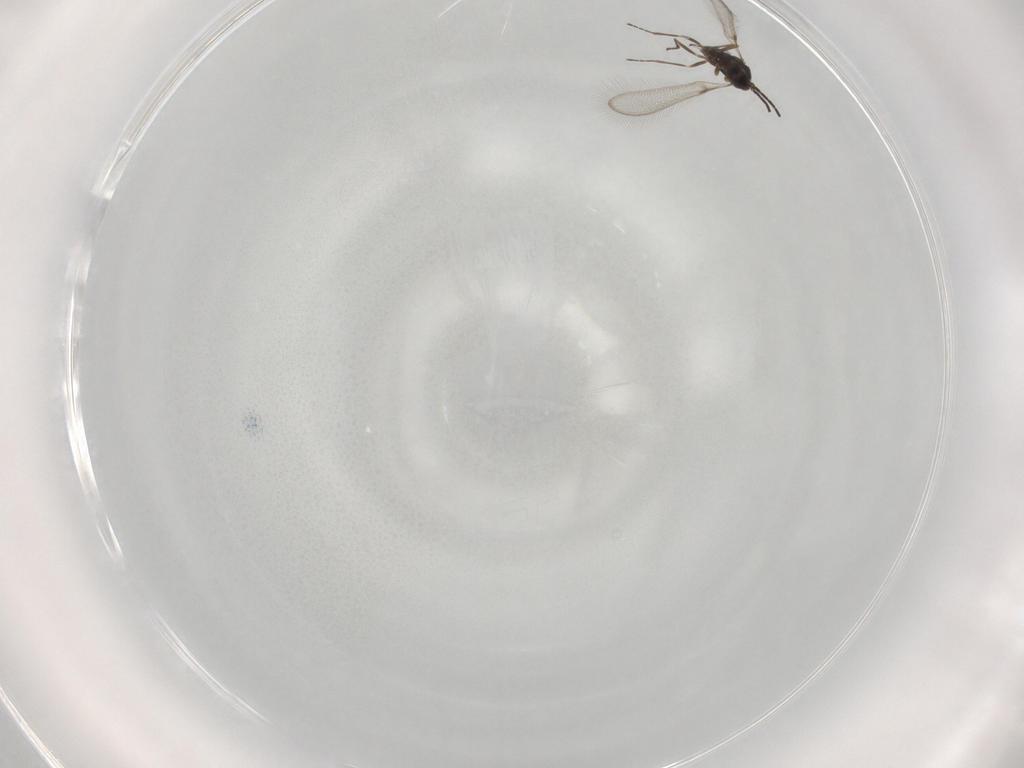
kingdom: Animalia
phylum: Arthropoda
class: Insecta
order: Hymenoptera
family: Mymaridae
